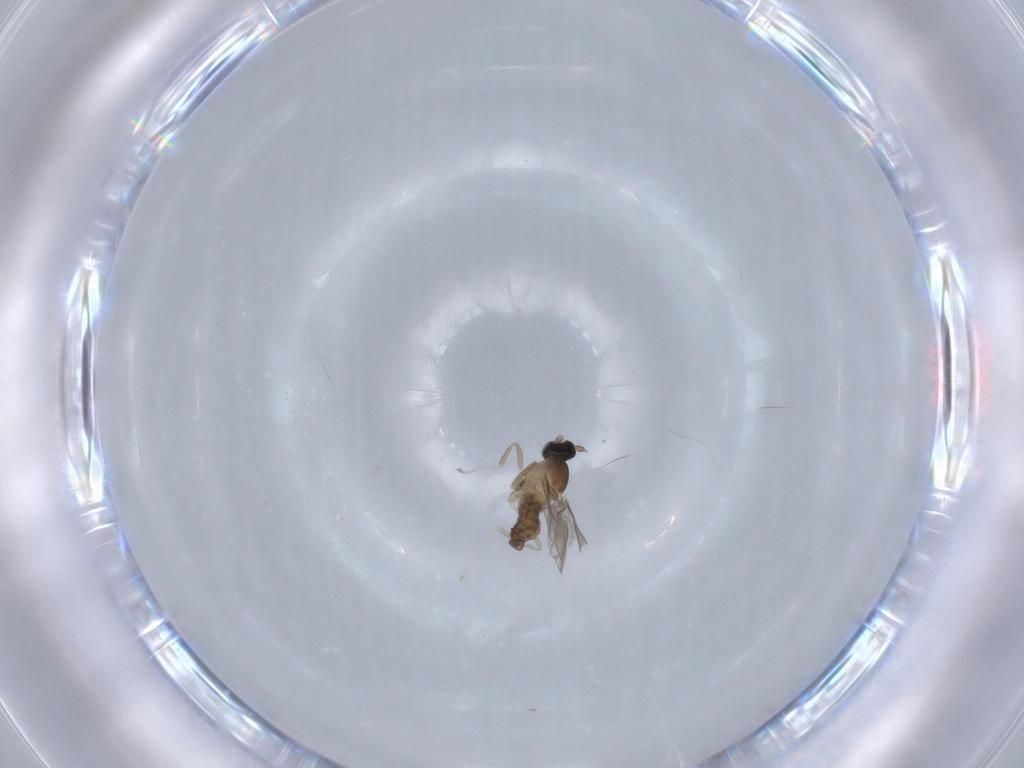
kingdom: Animalia
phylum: Arthropoda
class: Insecta
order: Diptera
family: Cecidomyiidae
